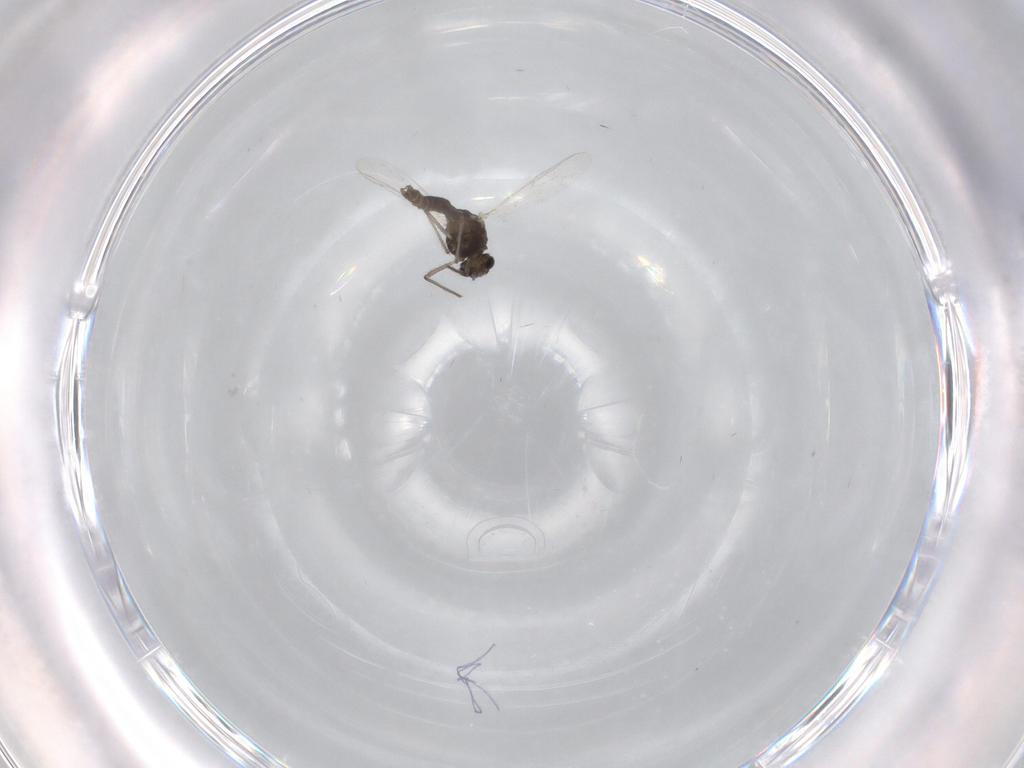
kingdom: Animalia
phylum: Arthropoda
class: Insecta
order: Diptera
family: Chironomidae
